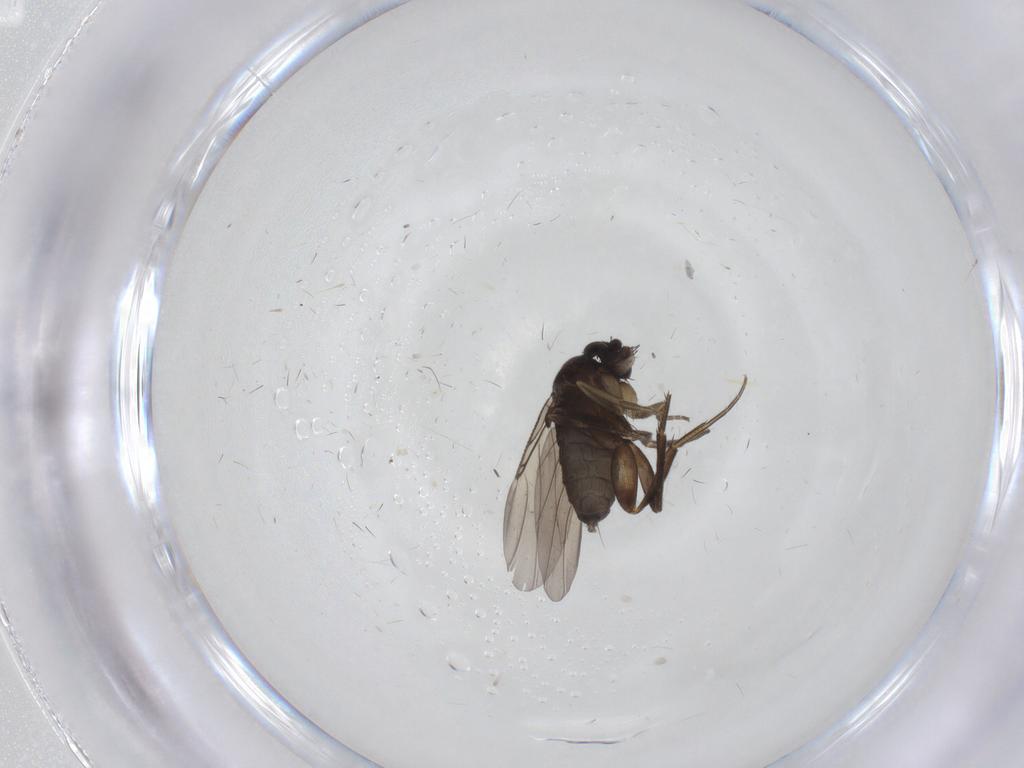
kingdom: Animalia
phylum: Arthropoda
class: Insecta
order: Diptera
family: Phoridae
